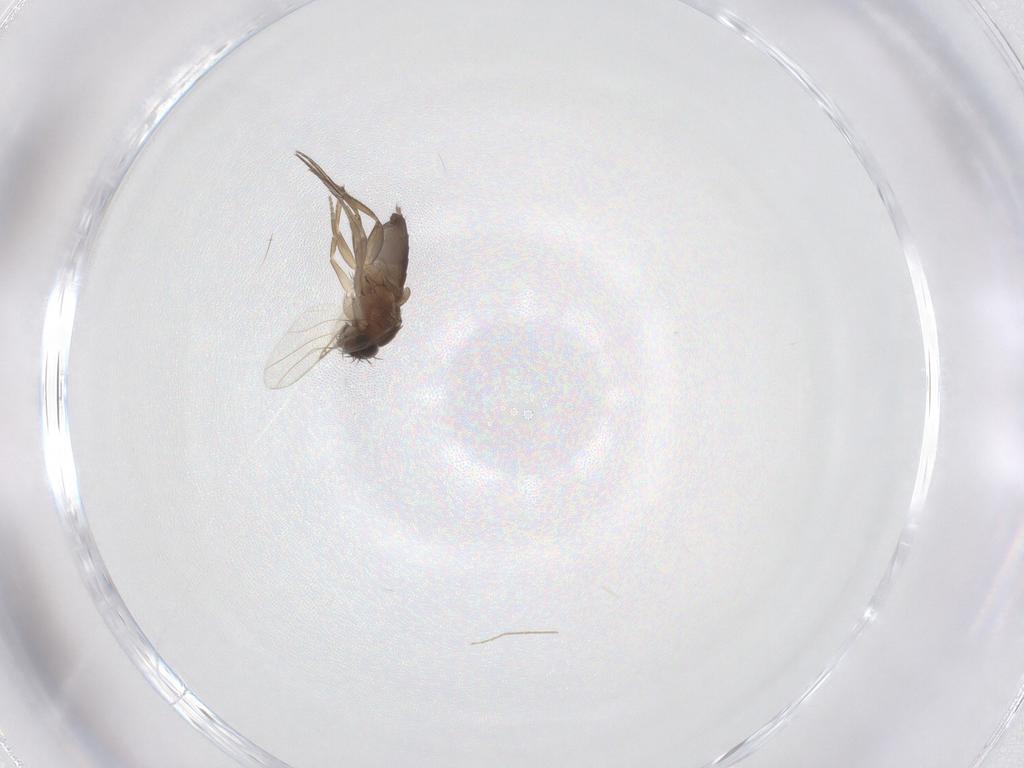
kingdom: Animalia
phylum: Arthropoda
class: Insecta
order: Diptera
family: Phoridae
